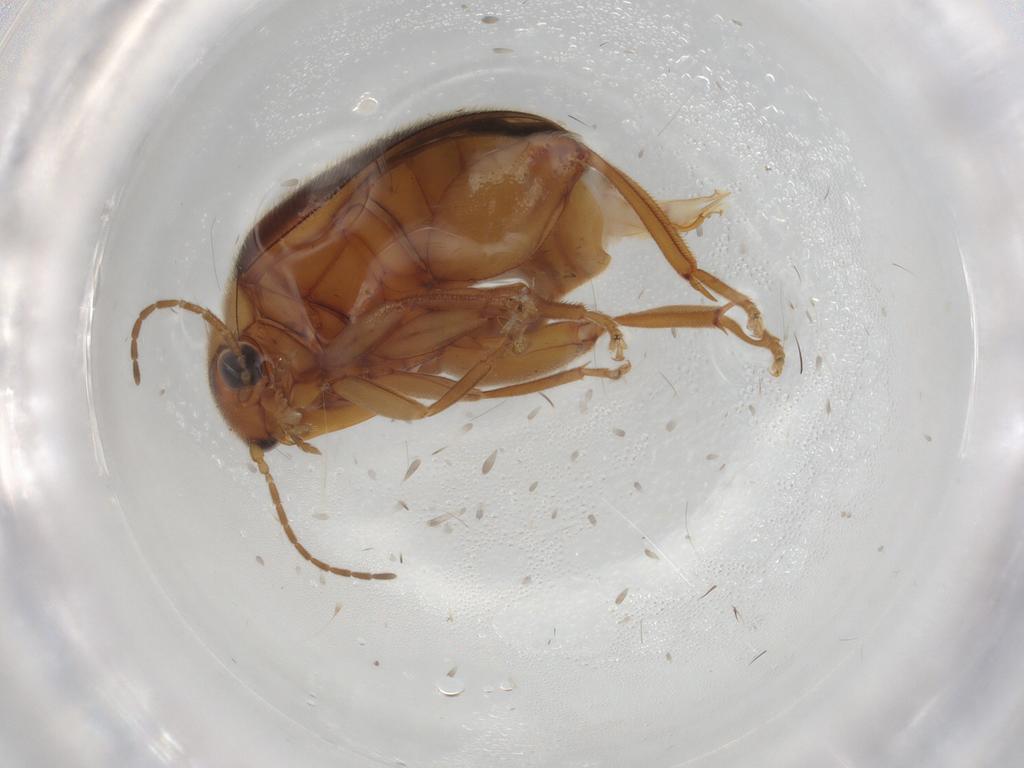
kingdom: Animalia
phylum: Arthropoda
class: Insecta
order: Coleoptera
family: Scirtidae
